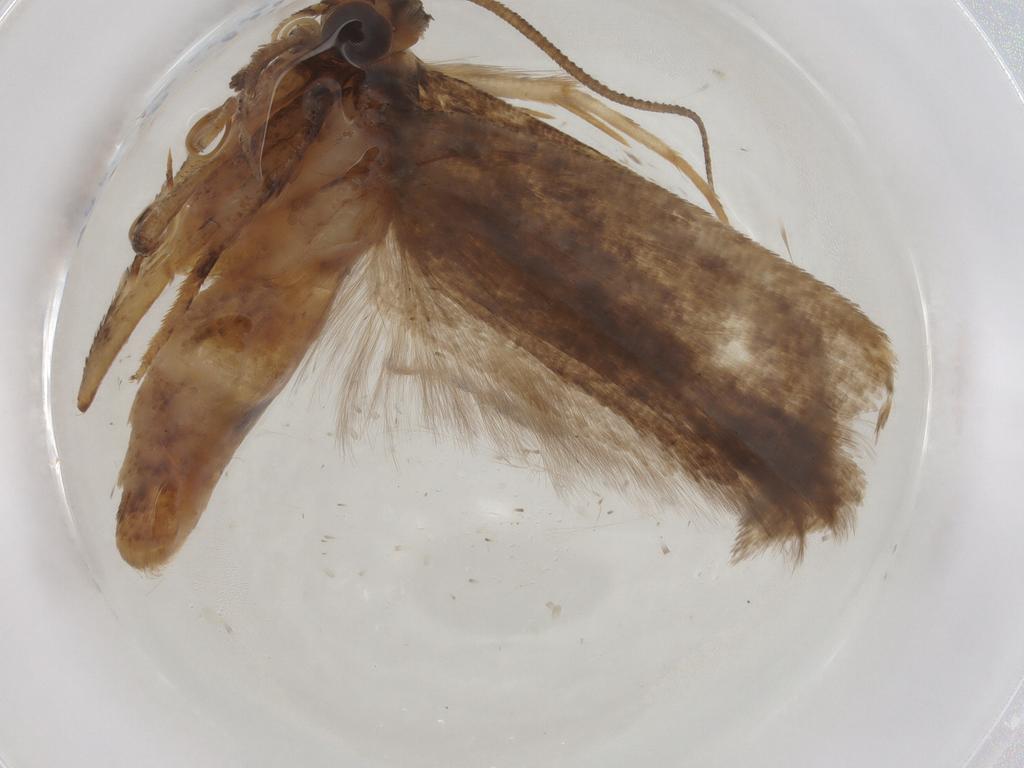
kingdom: Animalia
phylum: Arthropoda
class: Insecta
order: Lepidoptera
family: Gelechiidae
